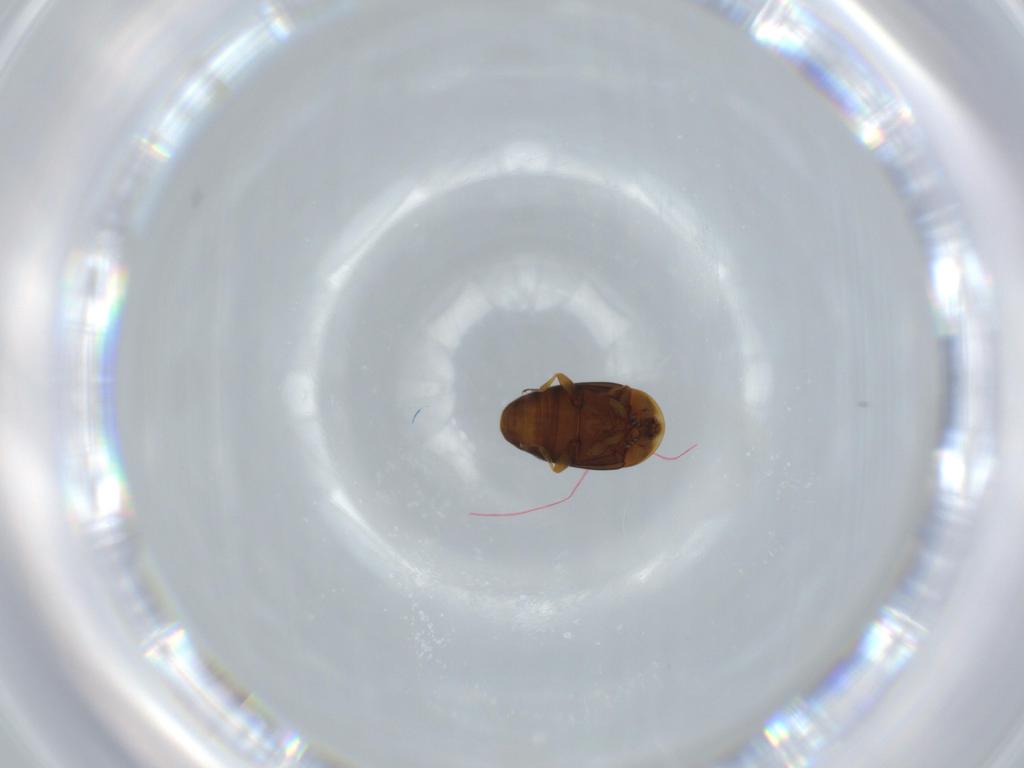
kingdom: Animalia
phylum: Arthropoda
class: Insecta
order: Coleoptera
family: Corylophidae
